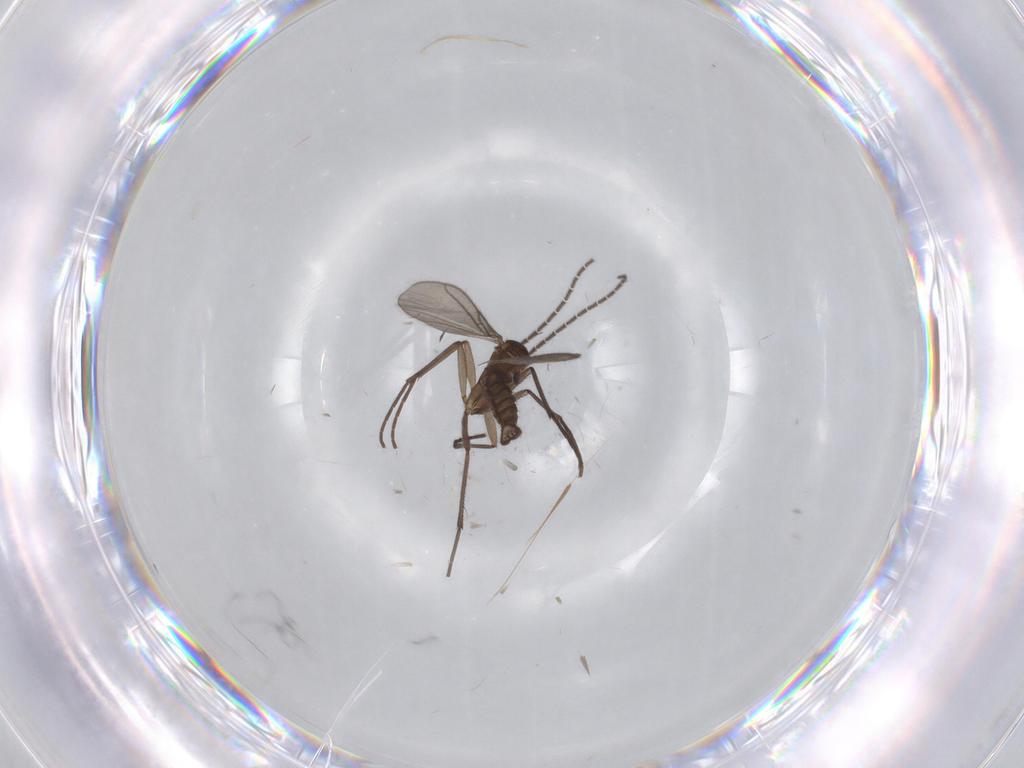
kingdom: Animalia
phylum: Arthropoda
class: Insecta
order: Diptera
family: Sciaridae
